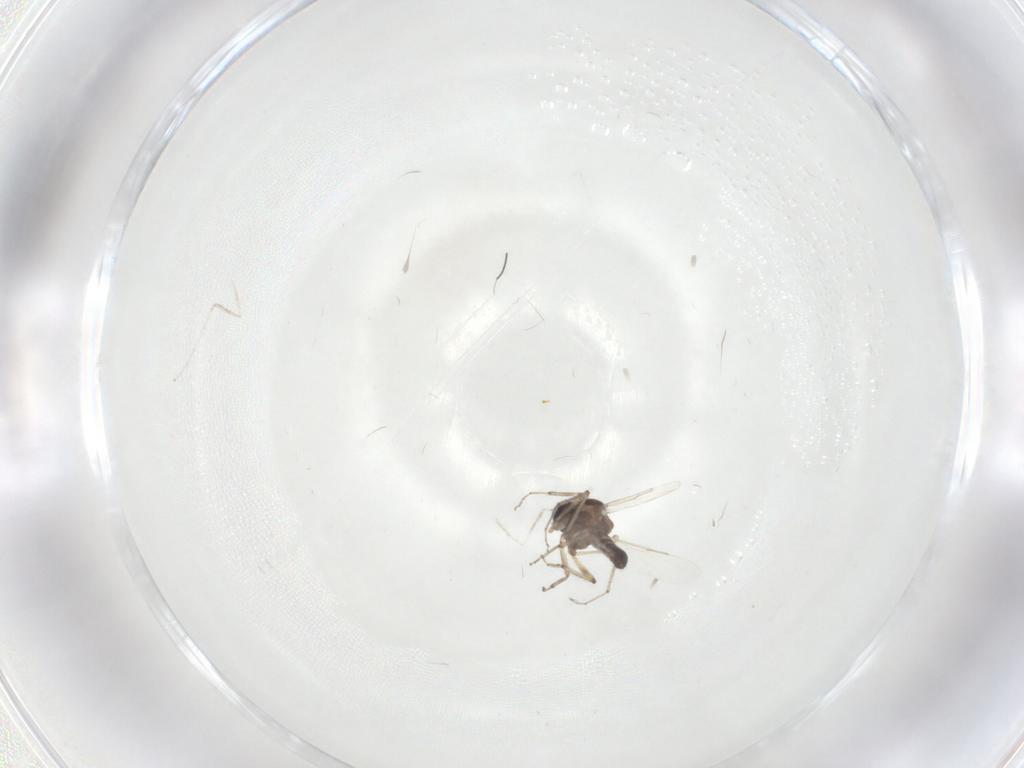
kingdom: Animalia
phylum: Arthropoda
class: Insecta
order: Diptera
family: Ceratopogonidae
